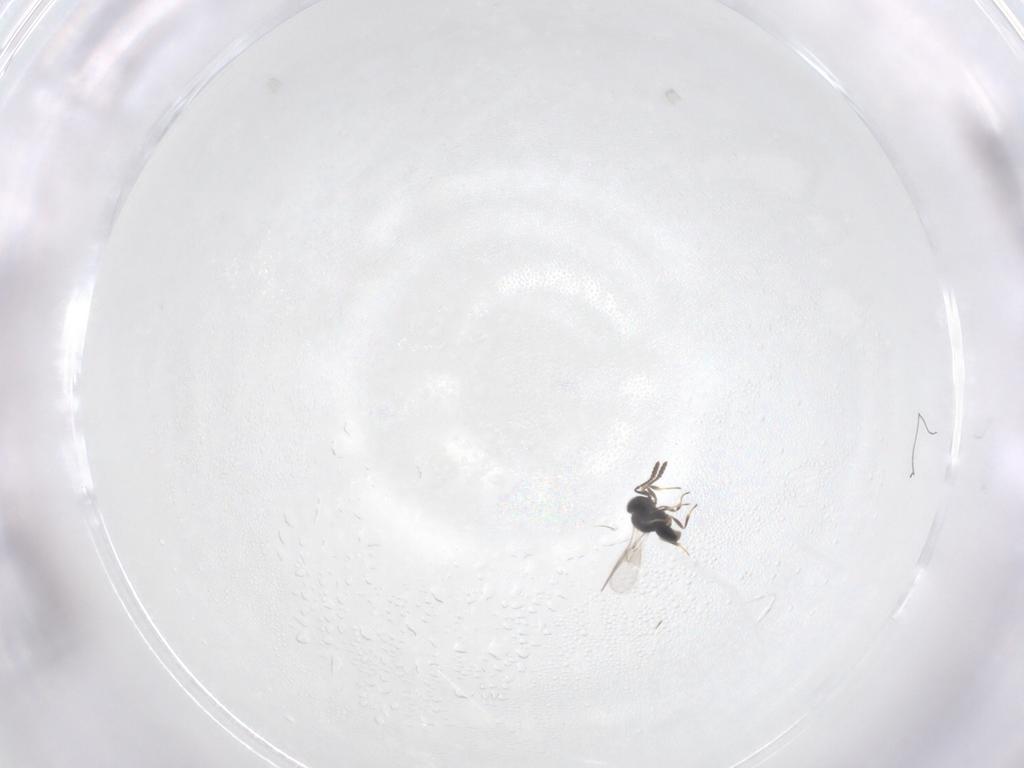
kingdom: Animalia
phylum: Arthropoda
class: Insecta
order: Hymenoptera
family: Scelionidae
